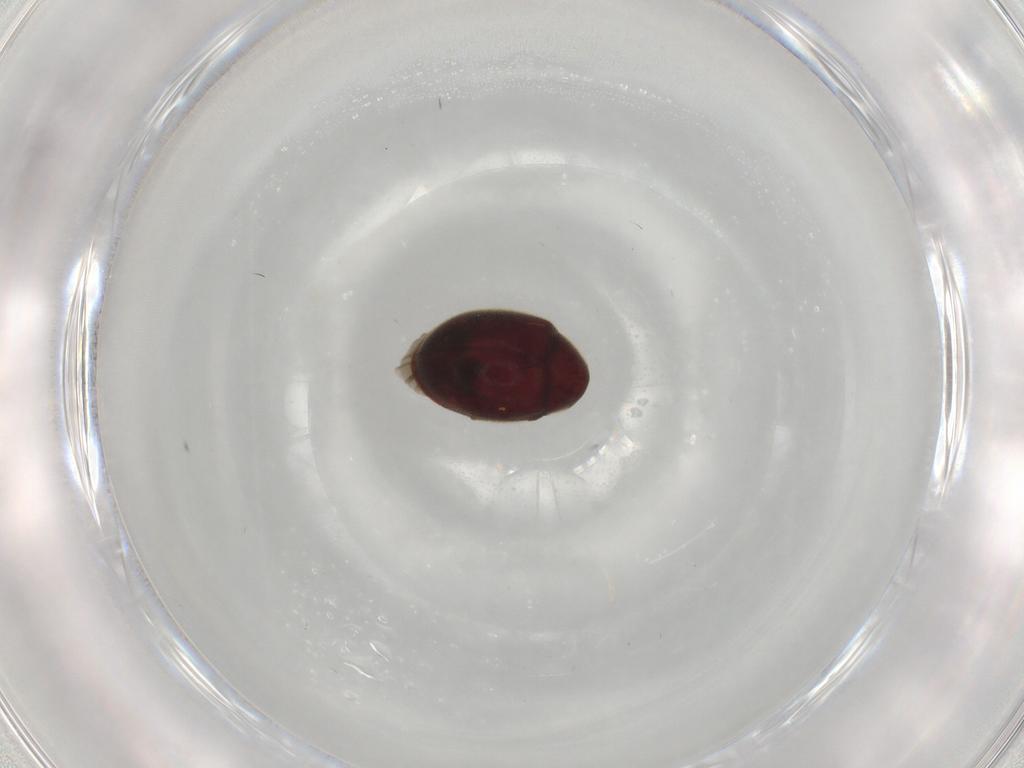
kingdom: Animalia
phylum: Arthropoda
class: Insecta
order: Coleoptera
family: Ptinidae
